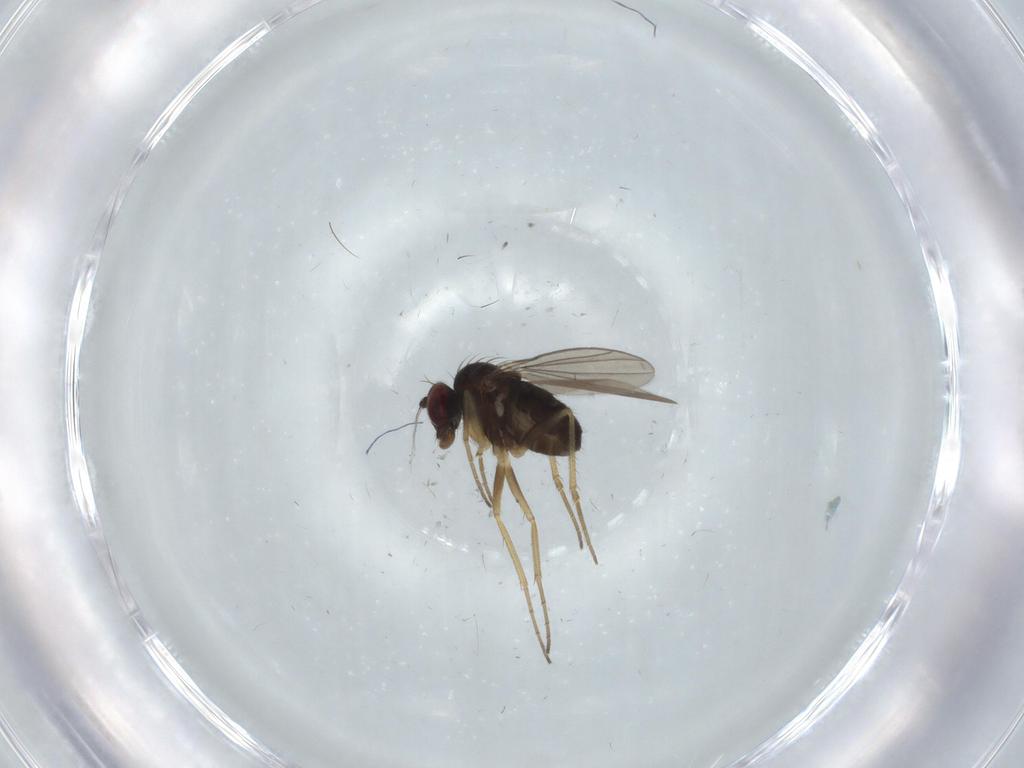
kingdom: Animalia
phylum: Arthropoda
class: Insecta
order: Diptera
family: Dolichopodidae
